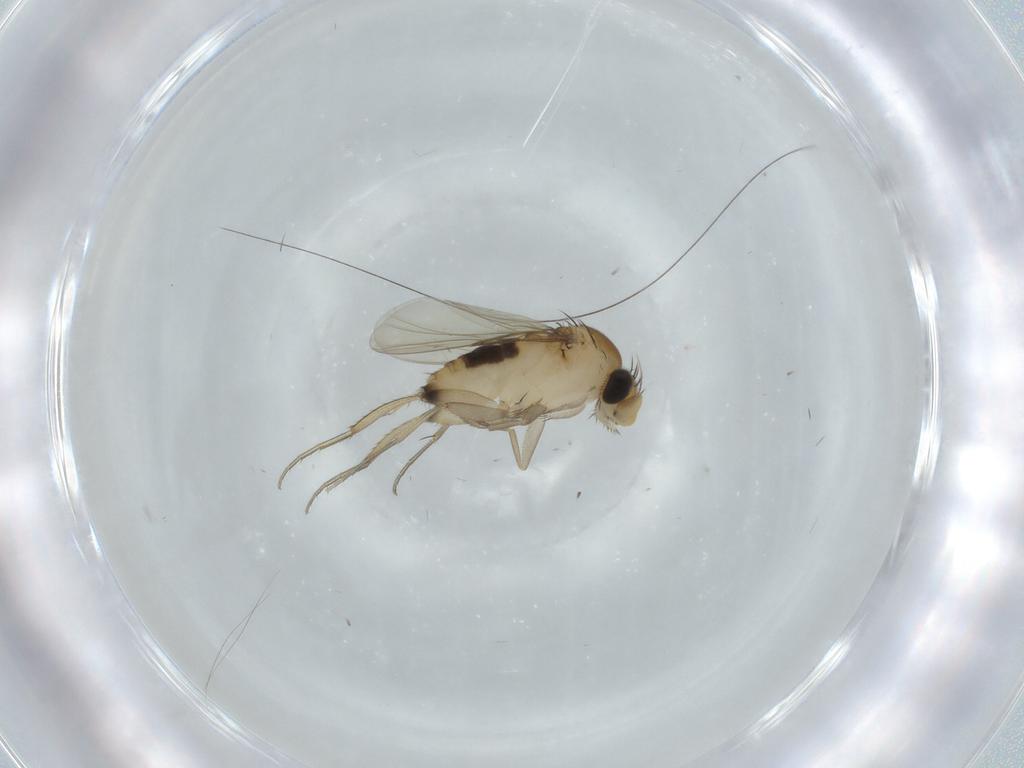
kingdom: Animalia
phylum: Arthropoda
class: Insecta
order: Diptera
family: Phoridae
